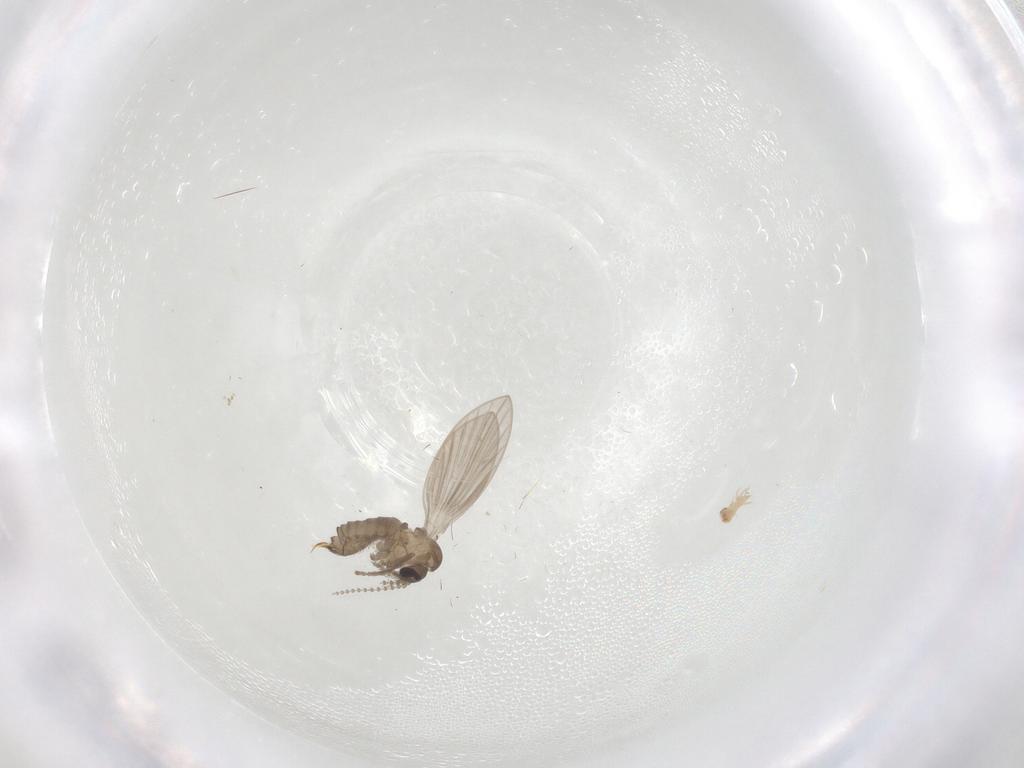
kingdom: Animalia
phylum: Arthropoda
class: Insecta
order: Diptera
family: Psychodidae
